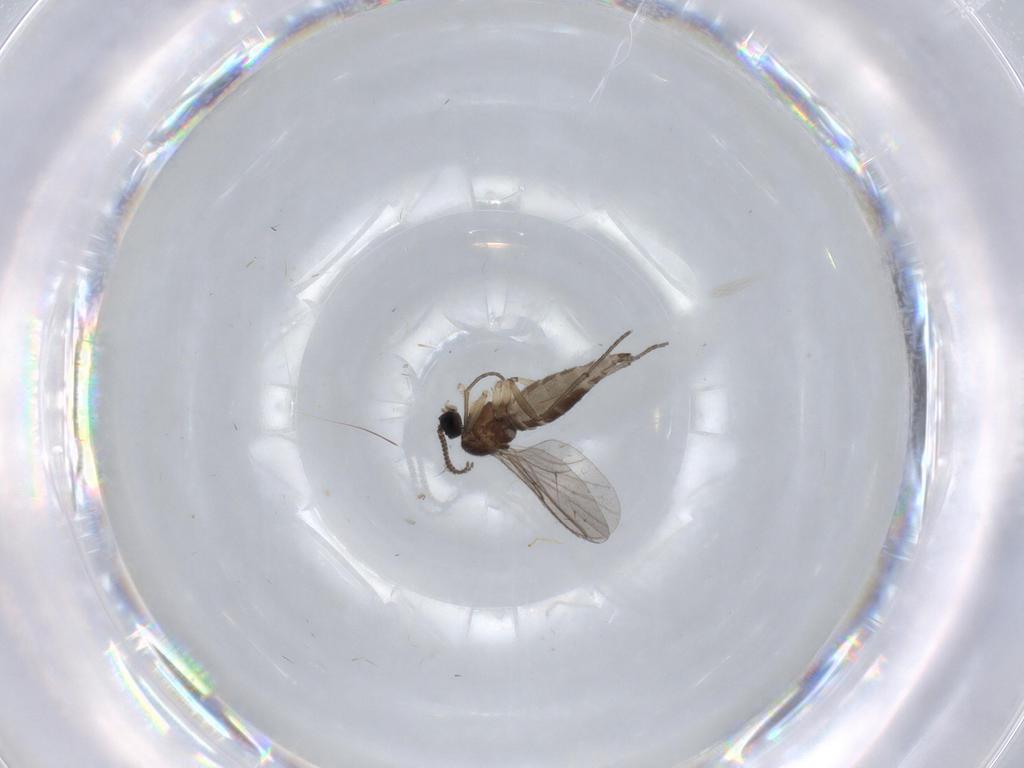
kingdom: Animalia
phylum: Arthropoda
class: Insecta
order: Diptera
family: Sciaridae
